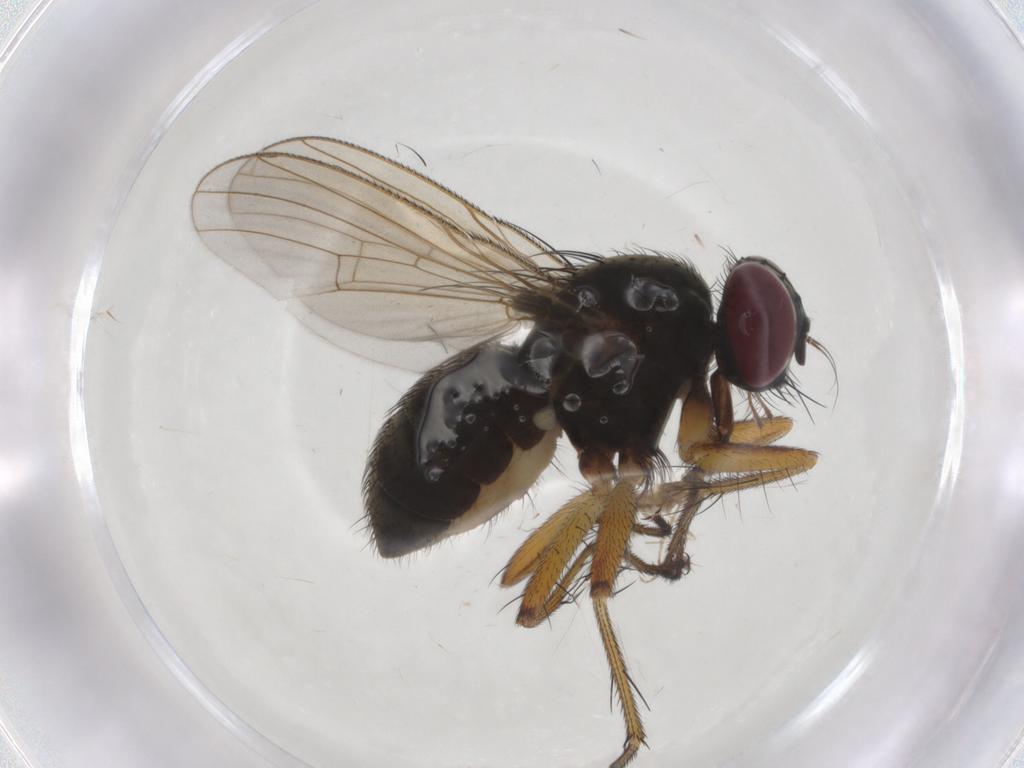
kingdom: Animalia
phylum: Arthropoda
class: Insecta
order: Diptera
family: Cecidomyiidae
